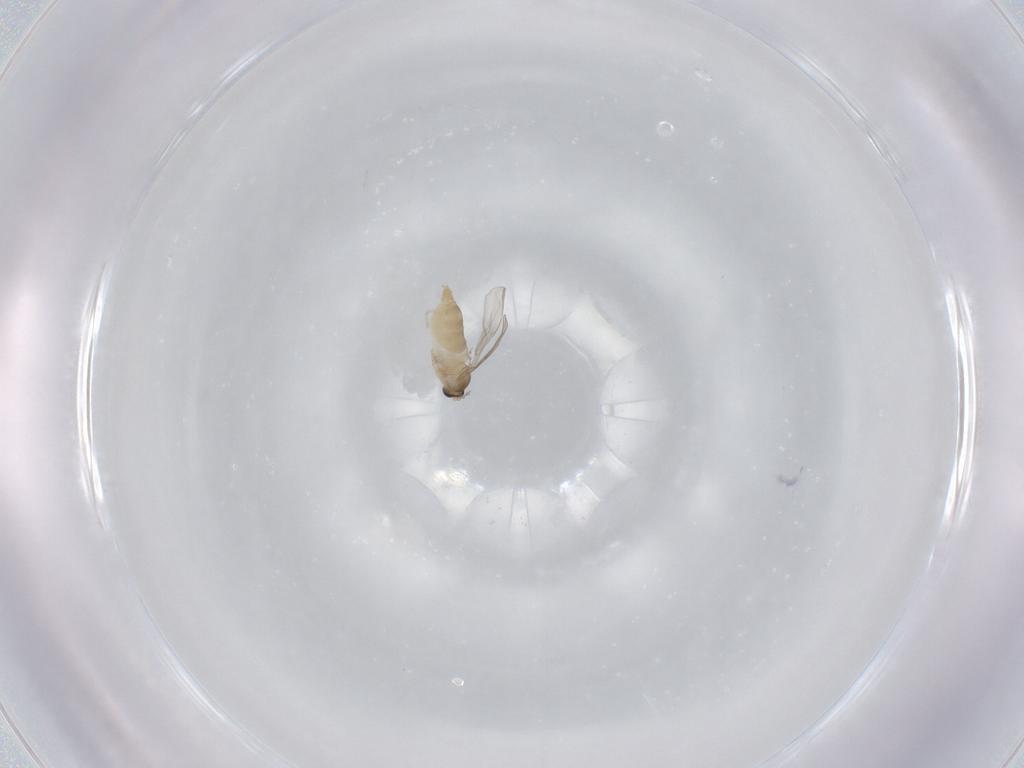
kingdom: Animalia
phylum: Arthropoda
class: Insecta
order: Diptera
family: Cecidomyiidae
